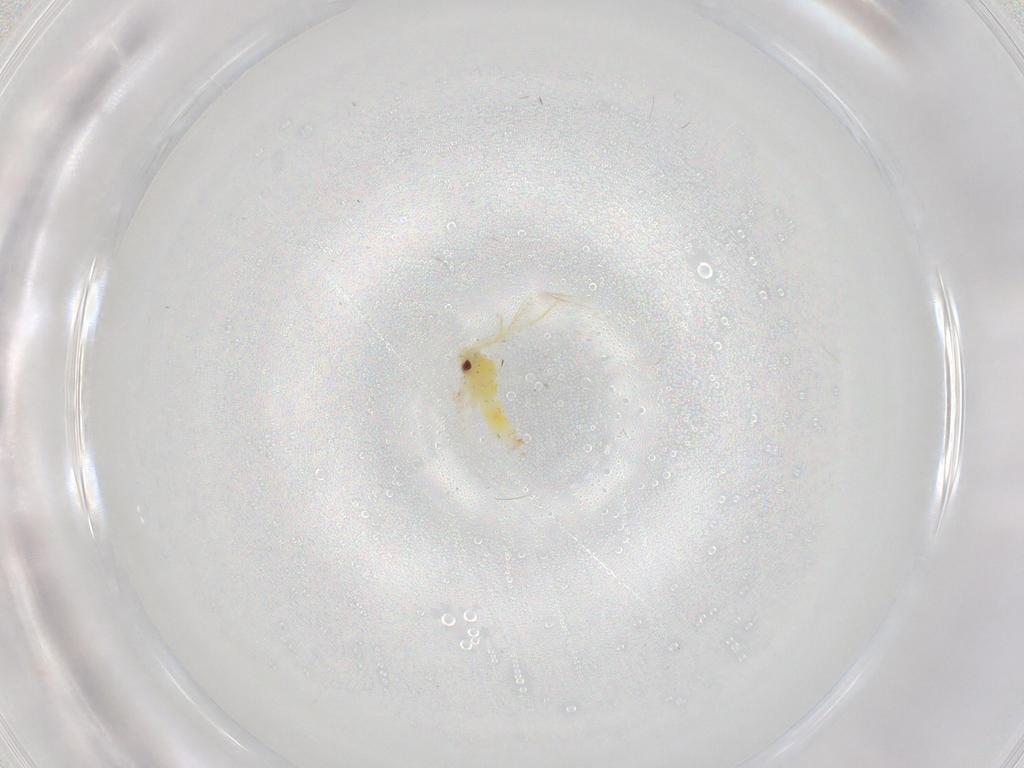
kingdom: Animalia
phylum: Arthropoda
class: Insecta
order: Hemiptera
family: Aleyrodidae
